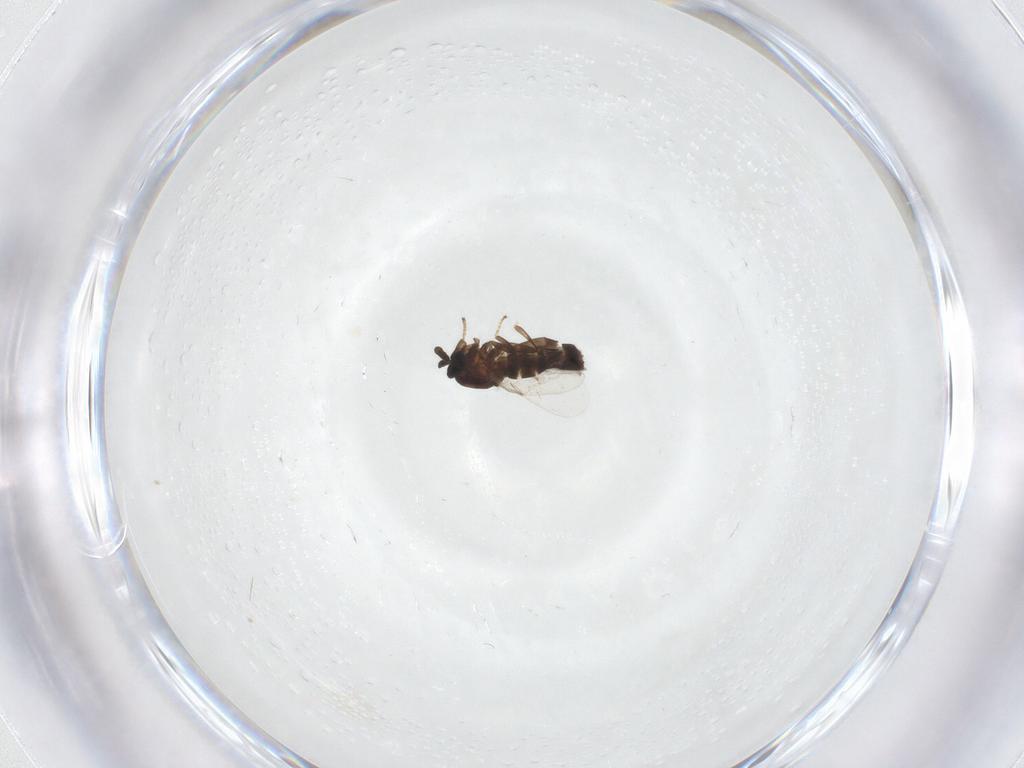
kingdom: Animalia
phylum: Arthropoda
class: Insecta
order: Diptera
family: Scatopsidae
